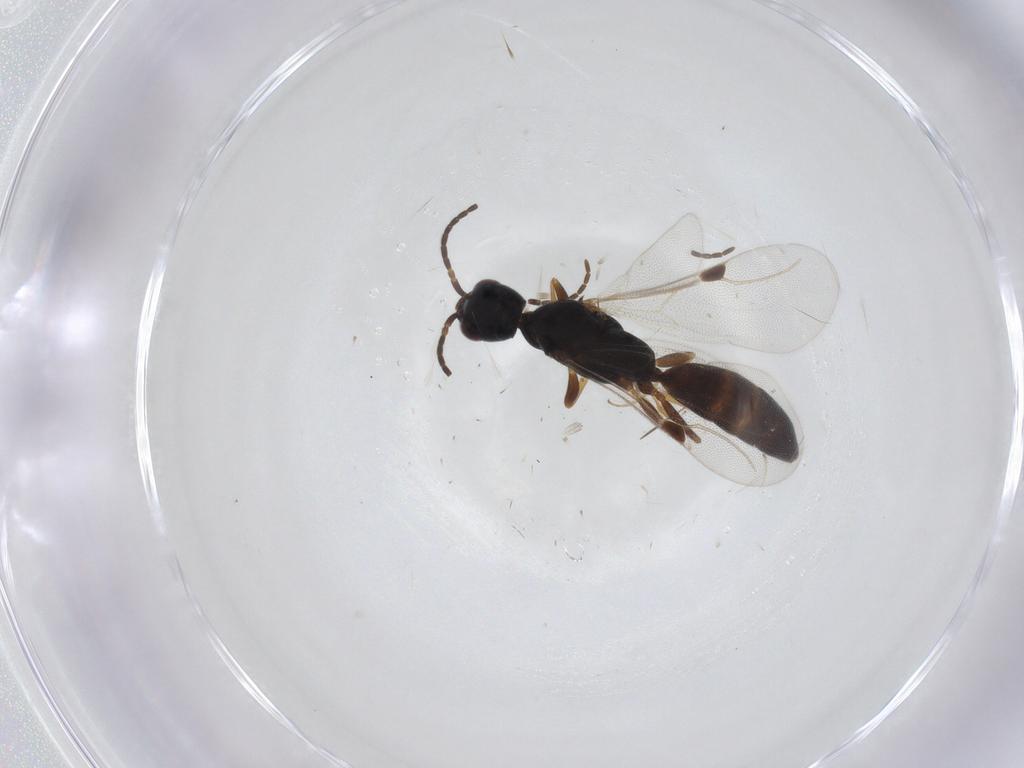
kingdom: Animalia
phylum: Arthropoda
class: Insecta
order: Hymenoptera
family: Bethylidae
